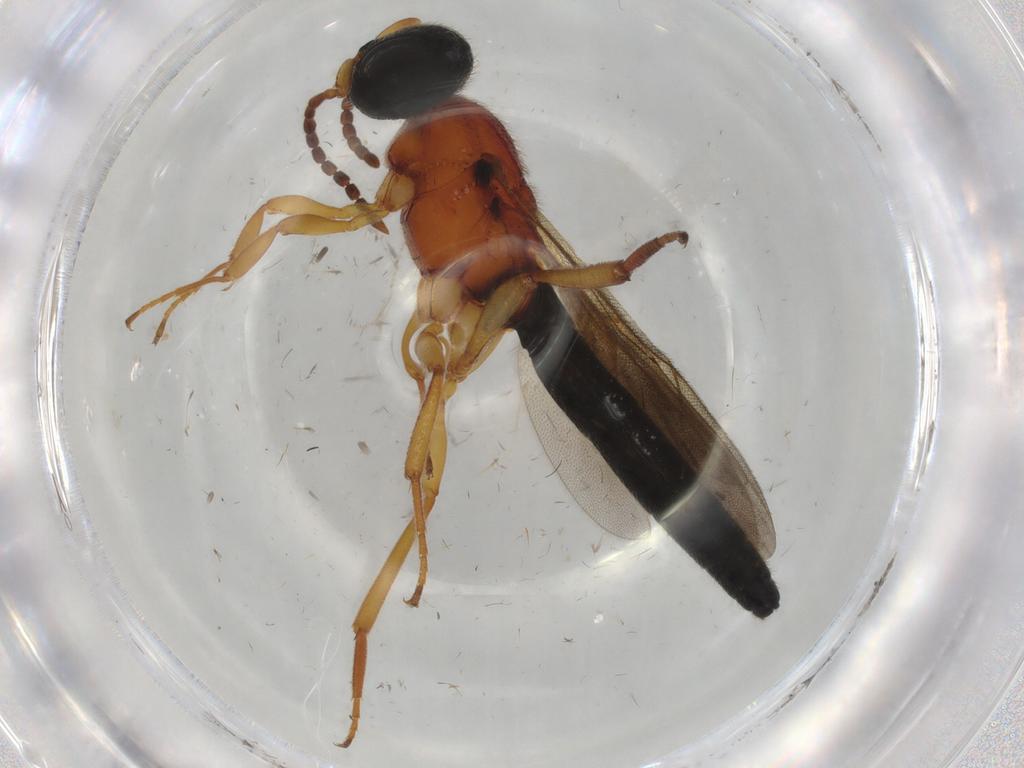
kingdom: Animalia
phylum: Arthropoda
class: Insecta
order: Hymenoptera
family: Scelionidae
